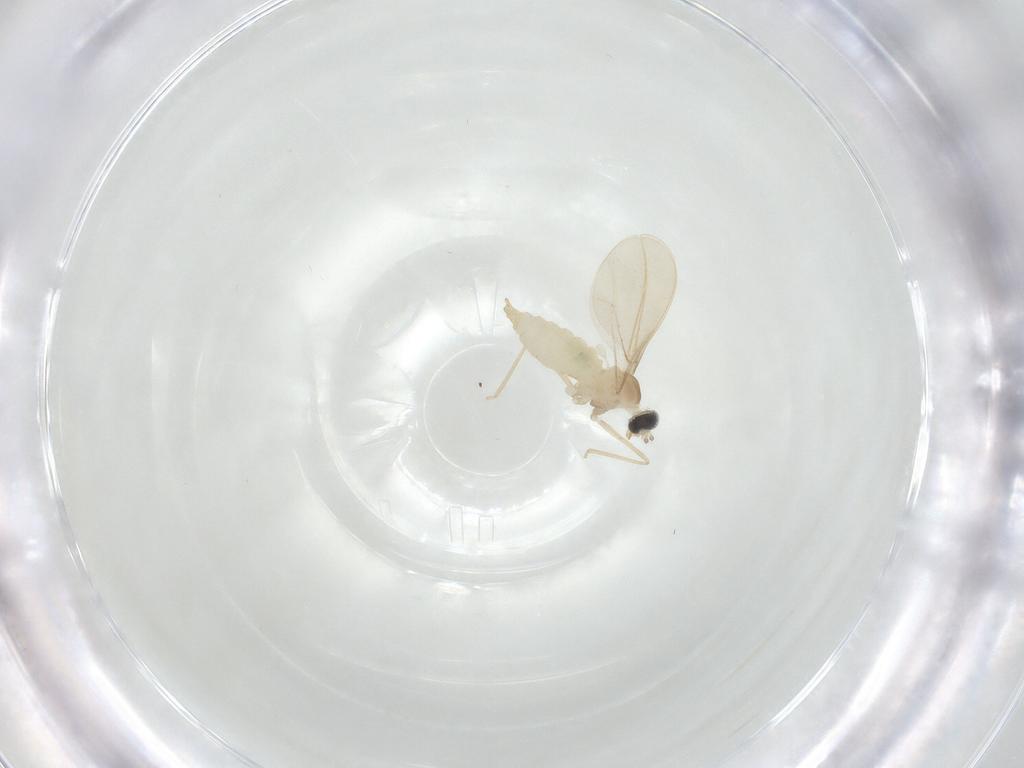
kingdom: Animalia
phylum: Arthropoda
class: Insecta
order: Diptera
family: Cecidomyiidae
